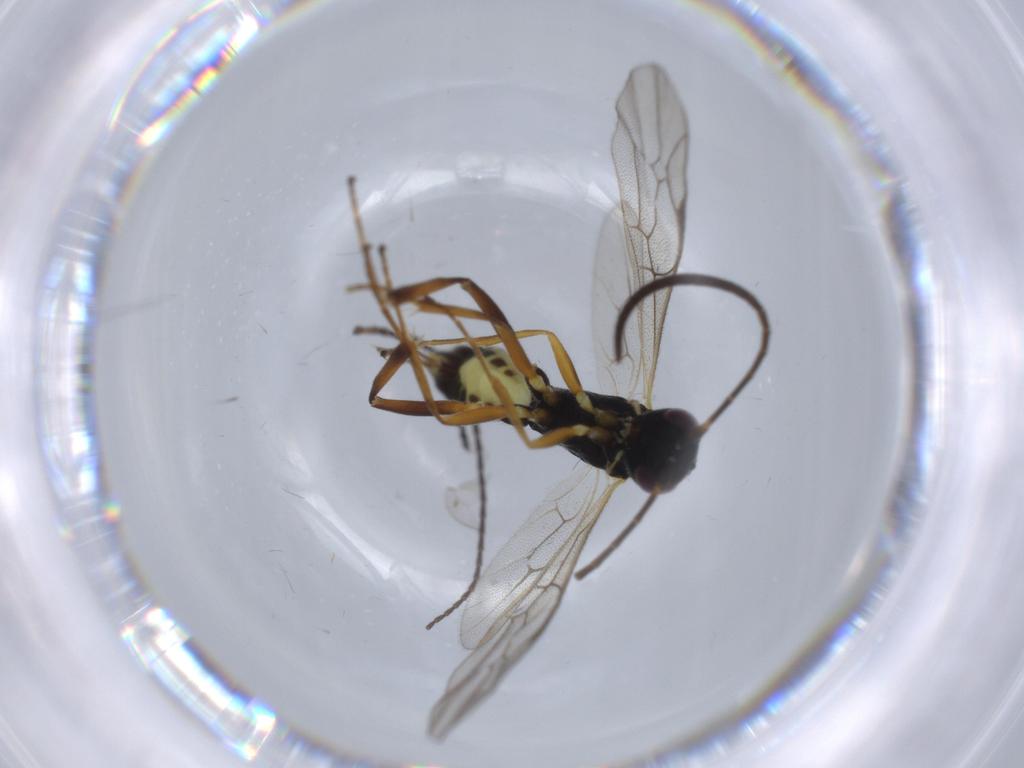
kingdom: Animalia
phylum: Arthropoda
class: Insecta
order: Hymenoptera
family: Ichneumonidae
